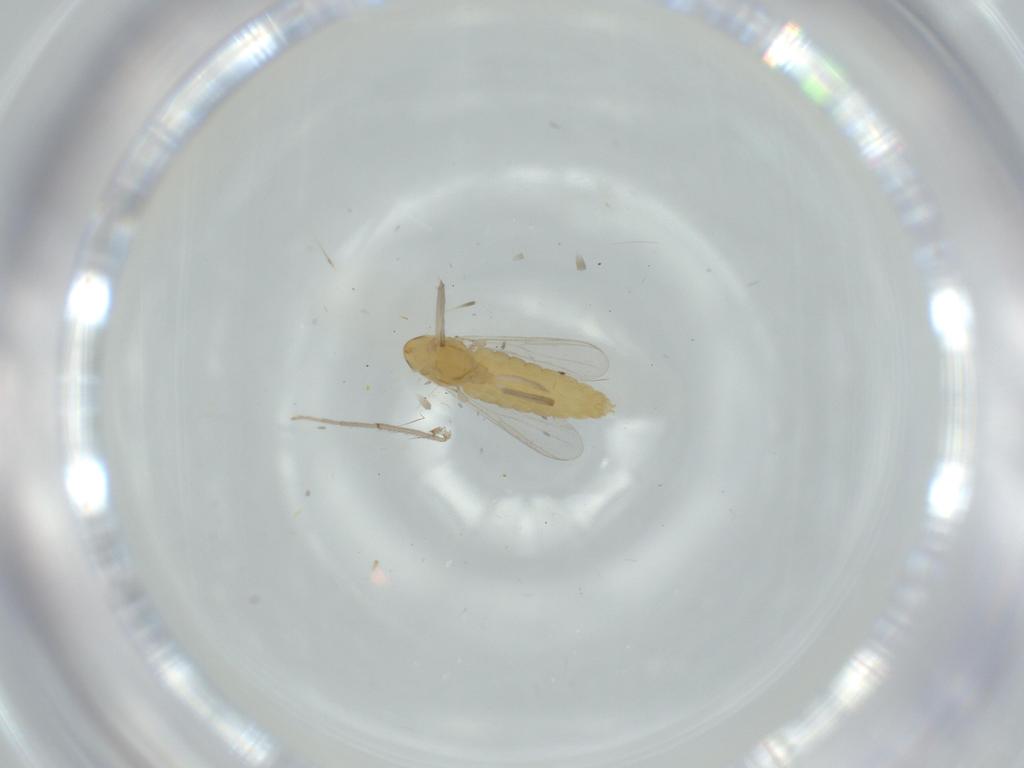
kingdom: Animalia
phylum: Arthropoda
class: Insecta
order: Diptera
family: Chironomidae
